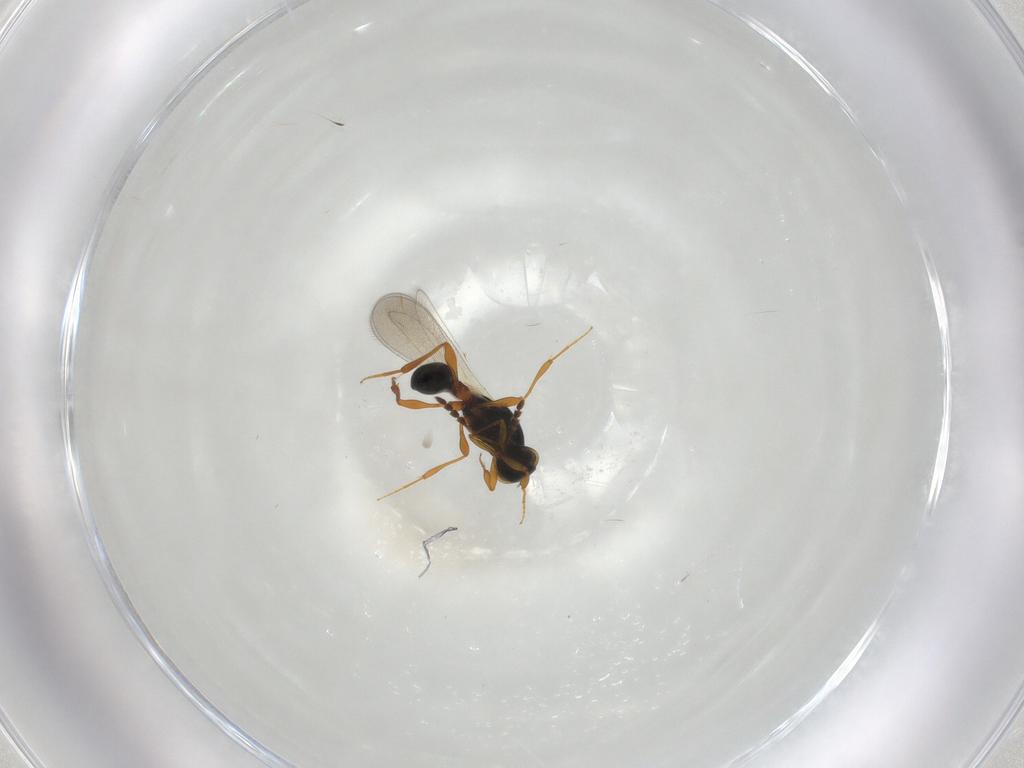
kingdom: Animalia
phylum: Arthropoda
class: Insecta
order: Hymenoptera
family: Platygastridae
